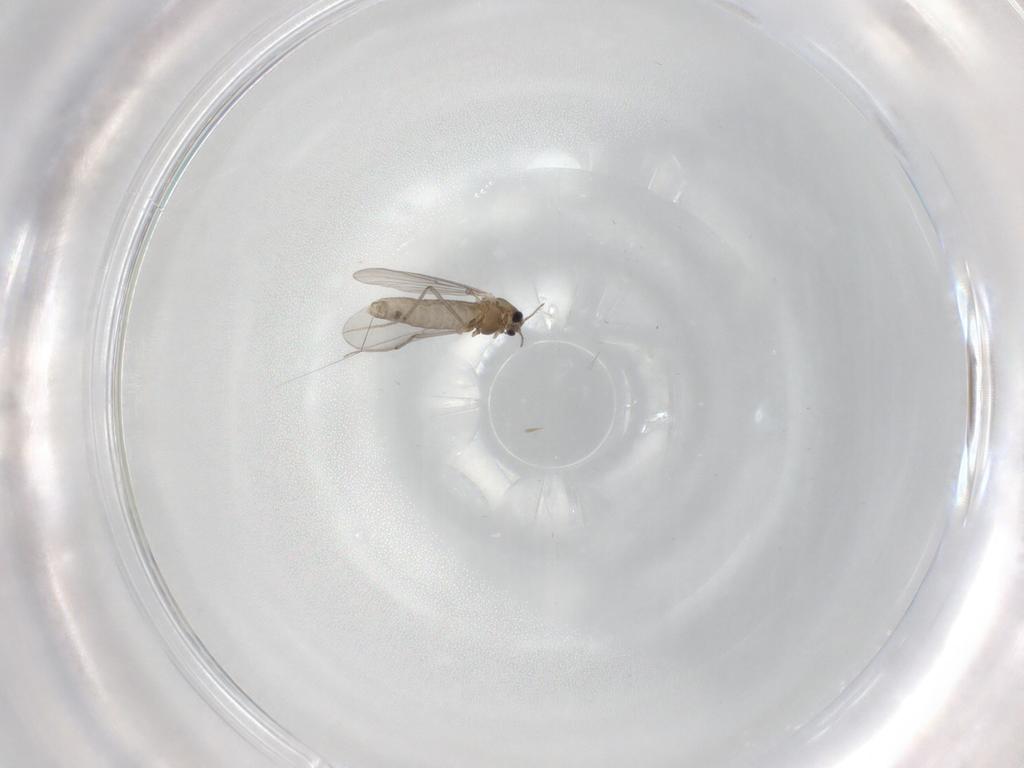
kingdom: Animalia
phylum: Arthropoda
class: Insecta
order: Diptera
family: Chironomidae
